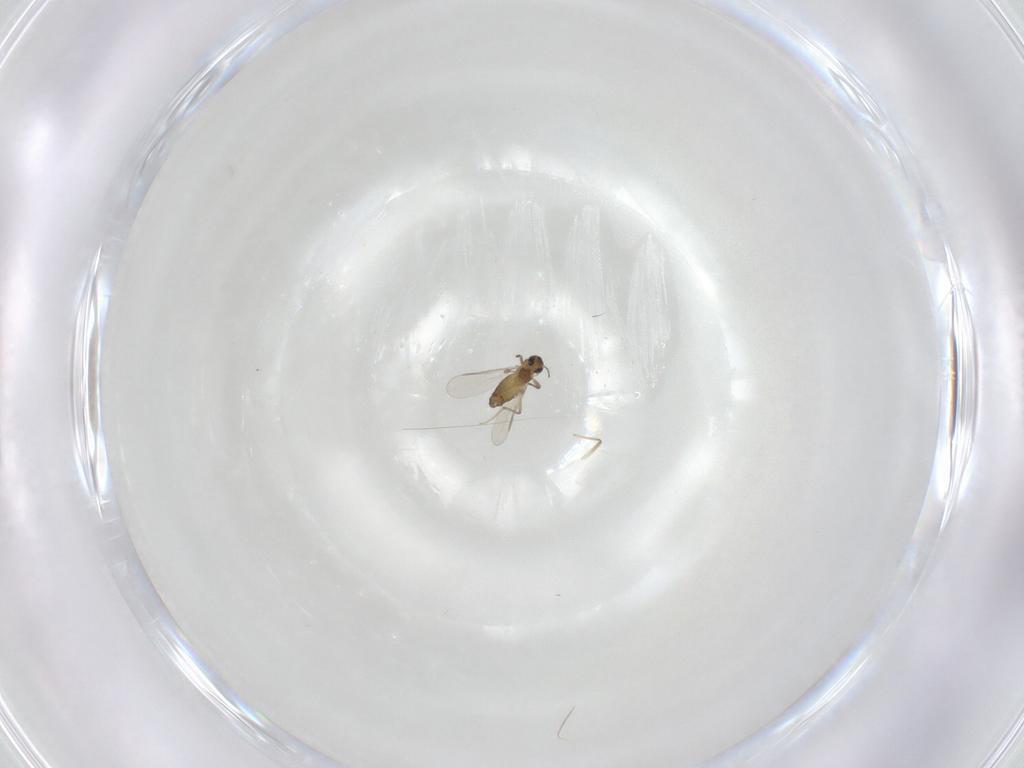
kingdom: Animalia
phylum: Arthropoda
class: Insecta
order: Diptera
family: Chironomidae
